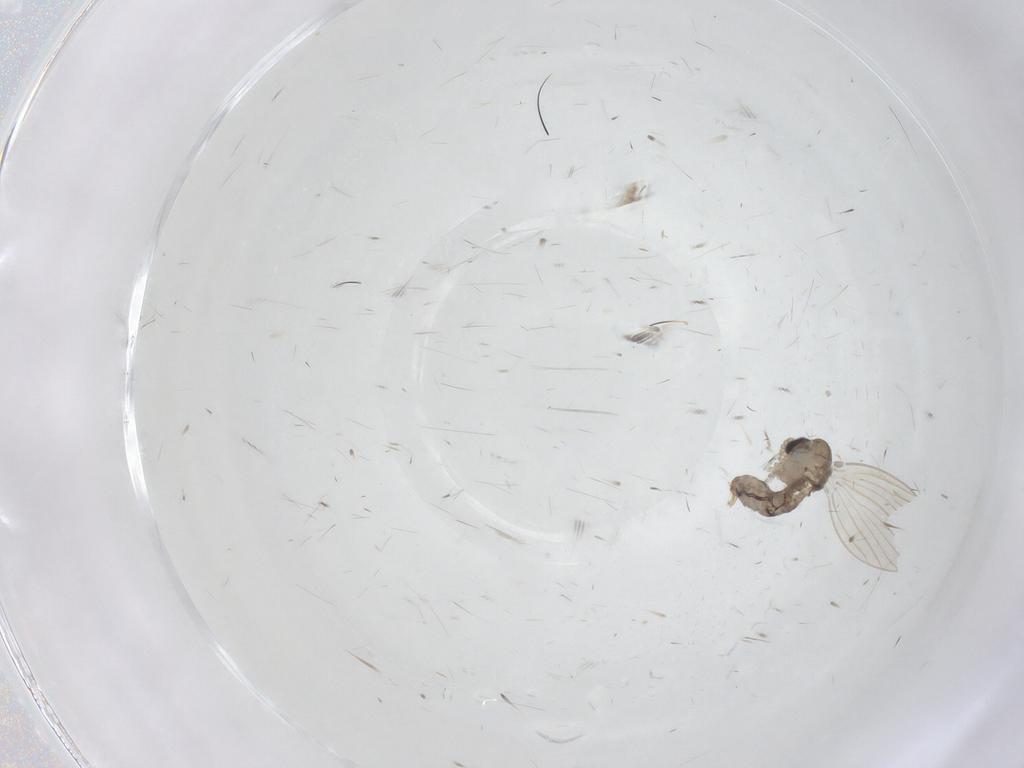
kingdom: Animalia
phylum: Arthropoda
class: Insecta
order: Diptera
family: Psychodidae
